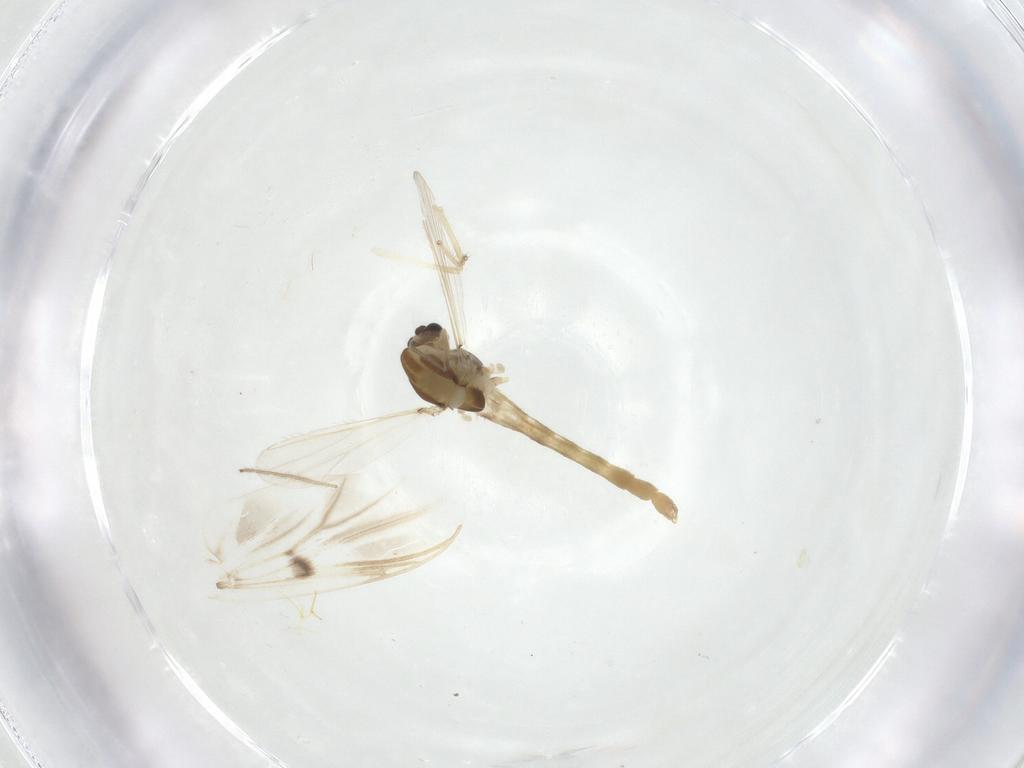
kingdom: Animalia
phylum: Arthropoda
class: Insecta
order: Diptera
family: Chironomidae
